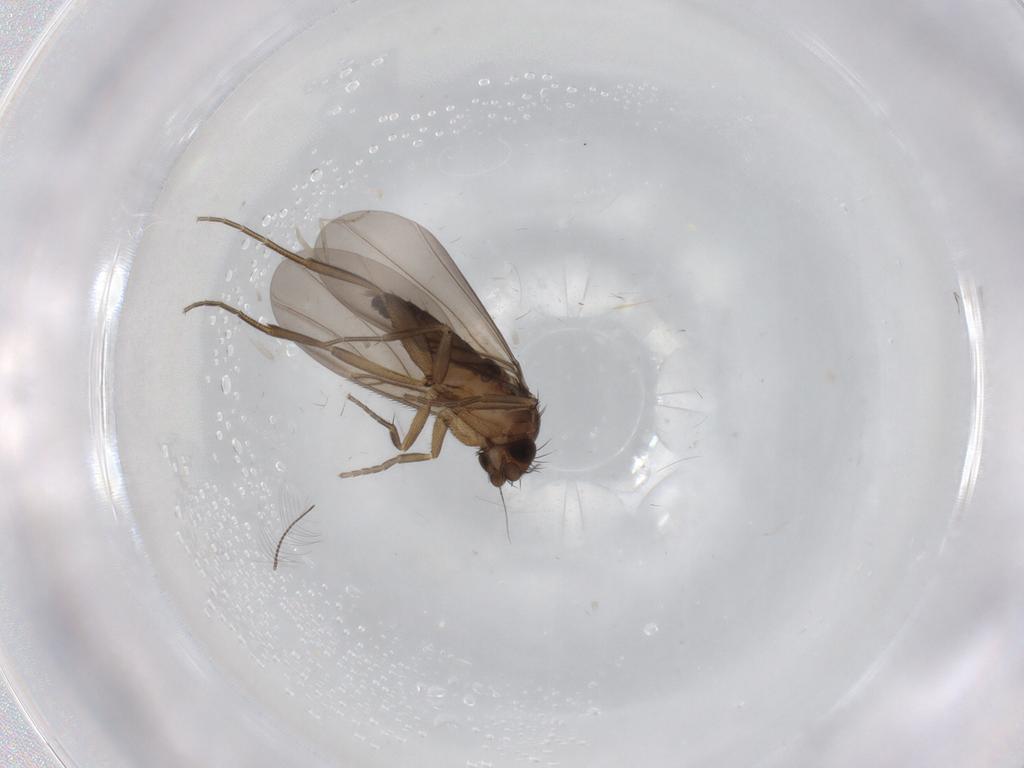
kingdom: Animalia
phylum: Arthropoda
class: Insecta
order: Diptera
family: Phoridae
